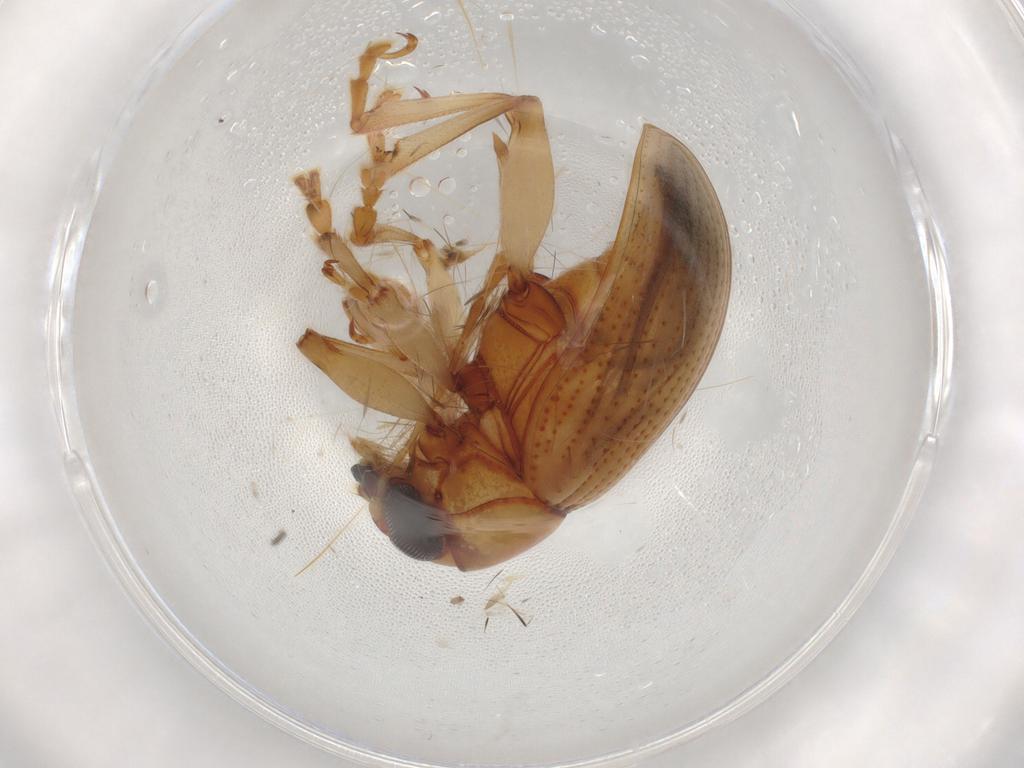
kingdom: Animalia
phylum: Arthropoda
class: Insecta
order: Coleoptera
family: Chrysomelidae
